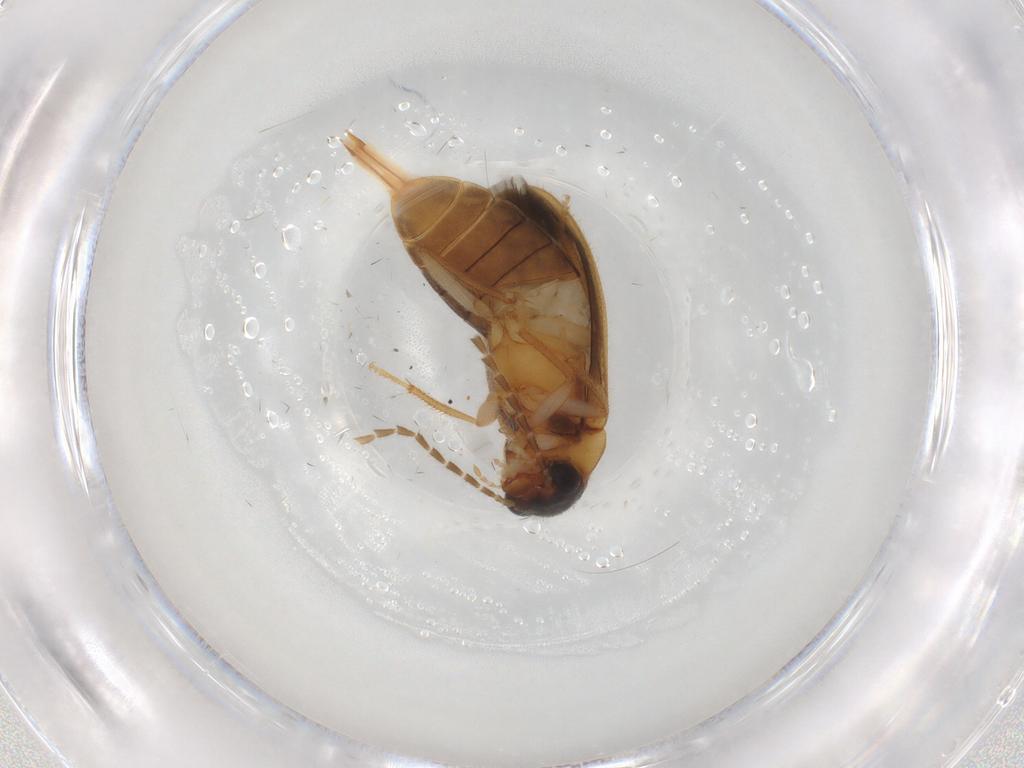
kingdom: Animalia
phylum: Arthropoda
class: Insecta
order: Coleoptera
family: Ptilodactylidae
